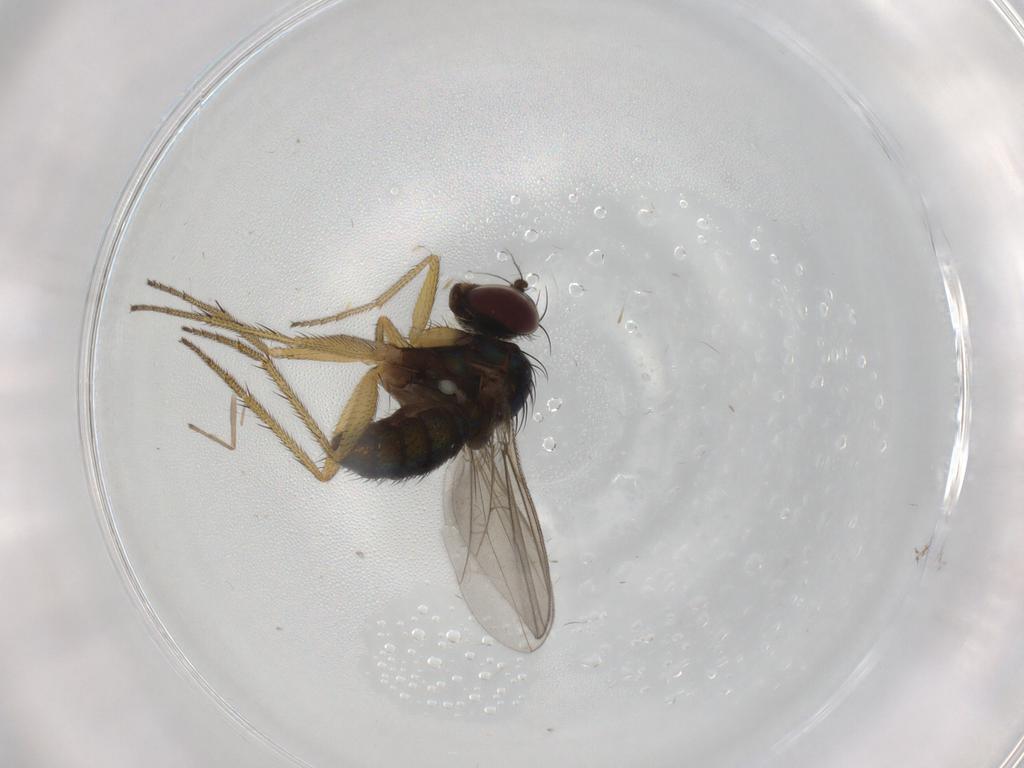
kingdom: Animalia
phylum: Arthropoda
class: Insecta
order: Diptera
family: Dolichopodidae
